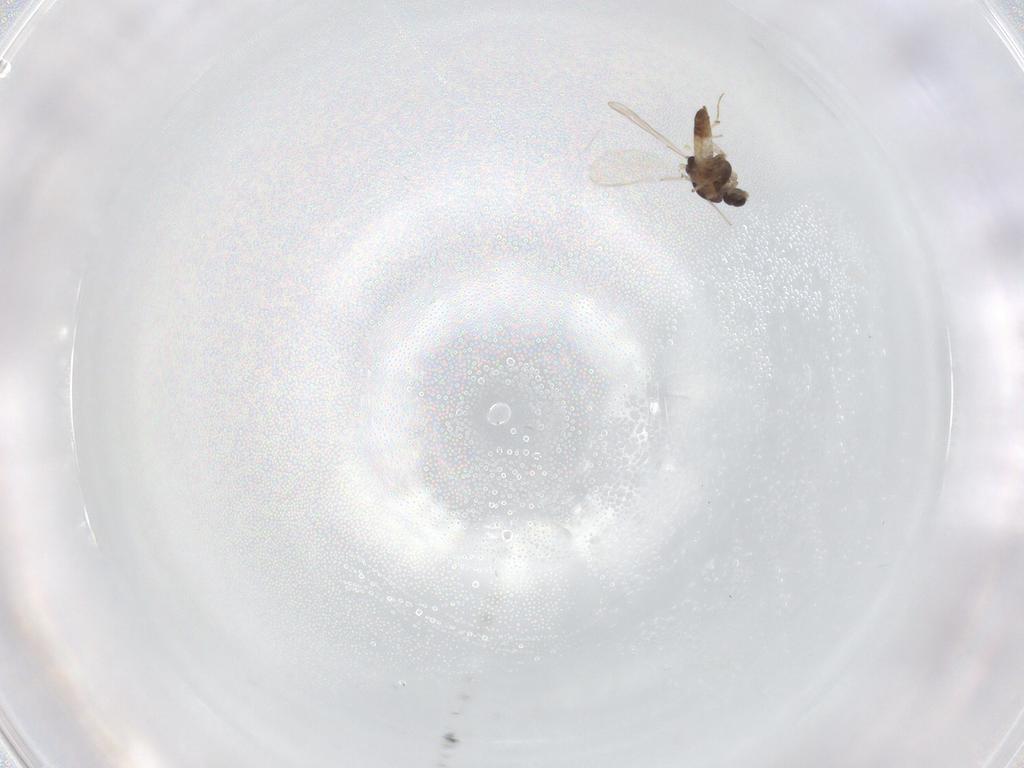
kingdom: Animalia
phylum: Arthropoda
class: Insecta
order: Diptera
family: Chironomidae
